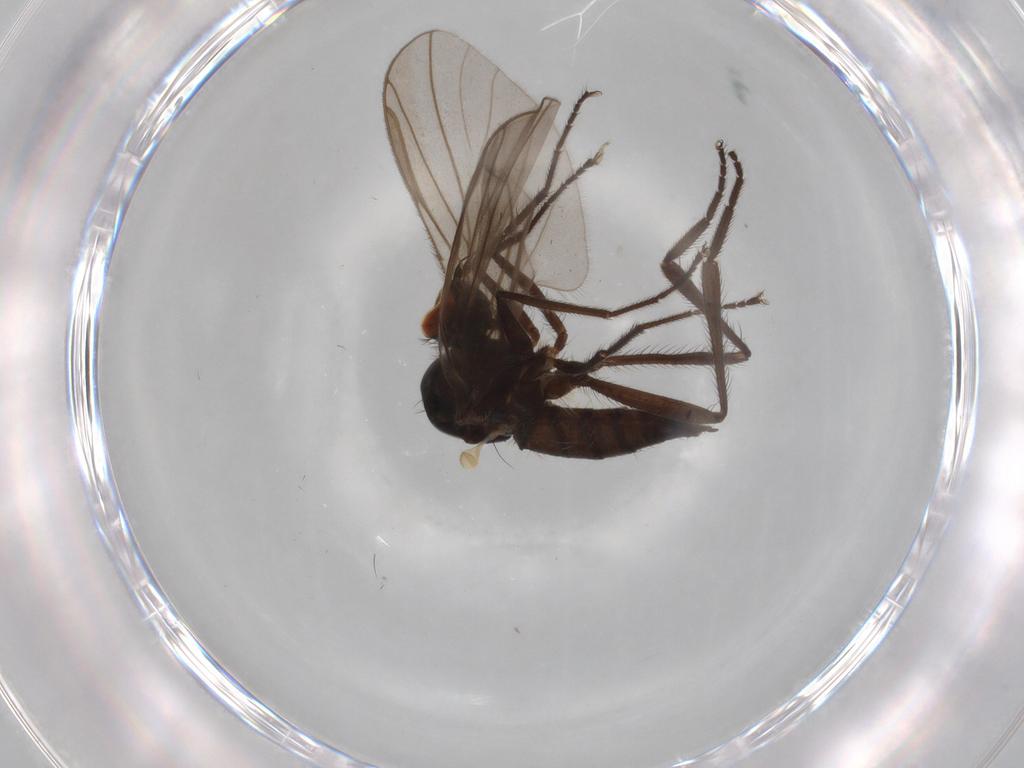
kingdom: Animalia
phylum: Arthropoda
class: Insecta
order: Diptera
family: Hybotidae
